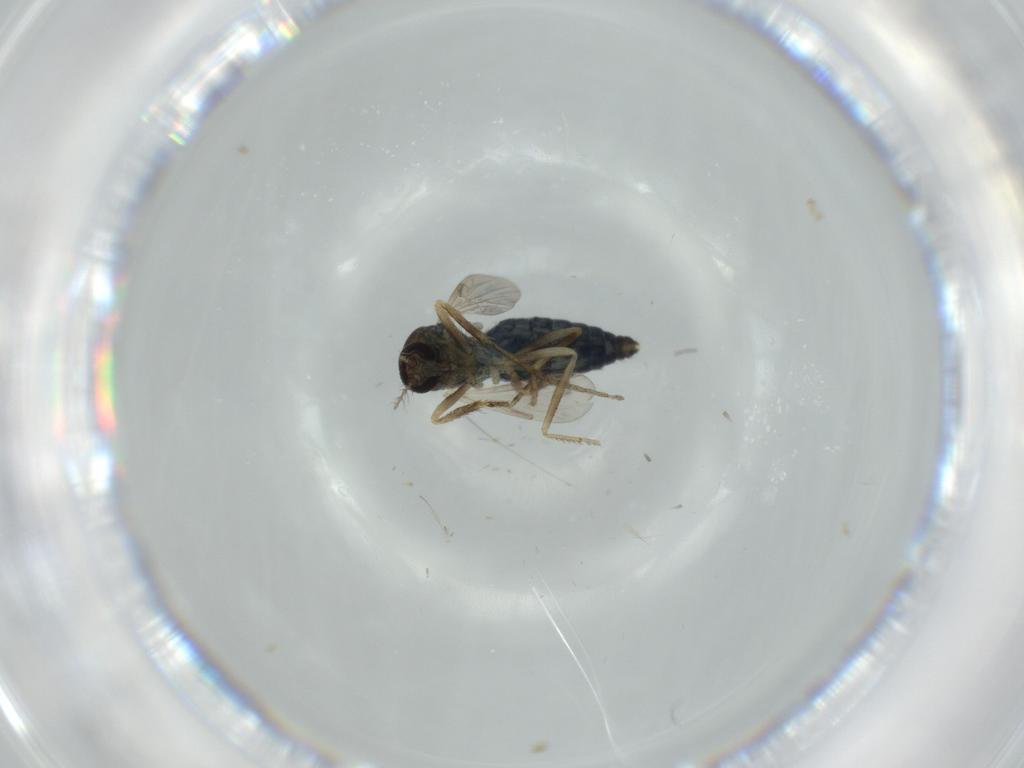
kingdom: Animalia
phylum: Arthropoda
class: Insecta
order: Diptera
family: Ceratopogonidae
